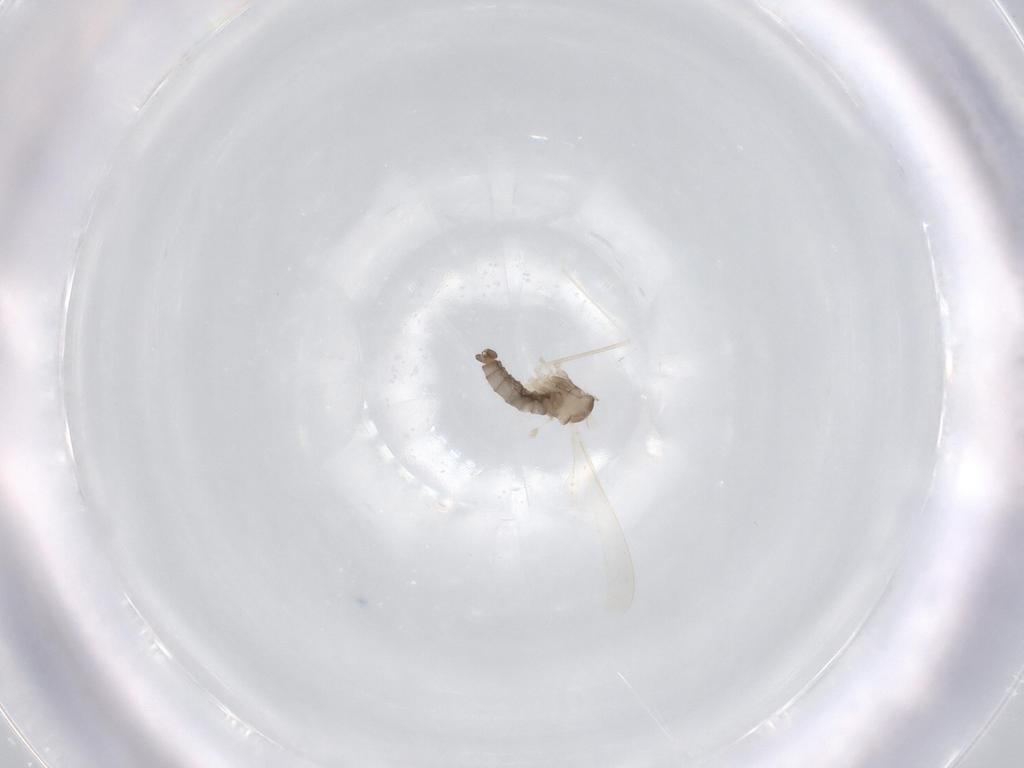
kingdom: Animalia
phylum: Arthropoda
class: Insecta
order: Diptera
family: Cecidomyiidae
